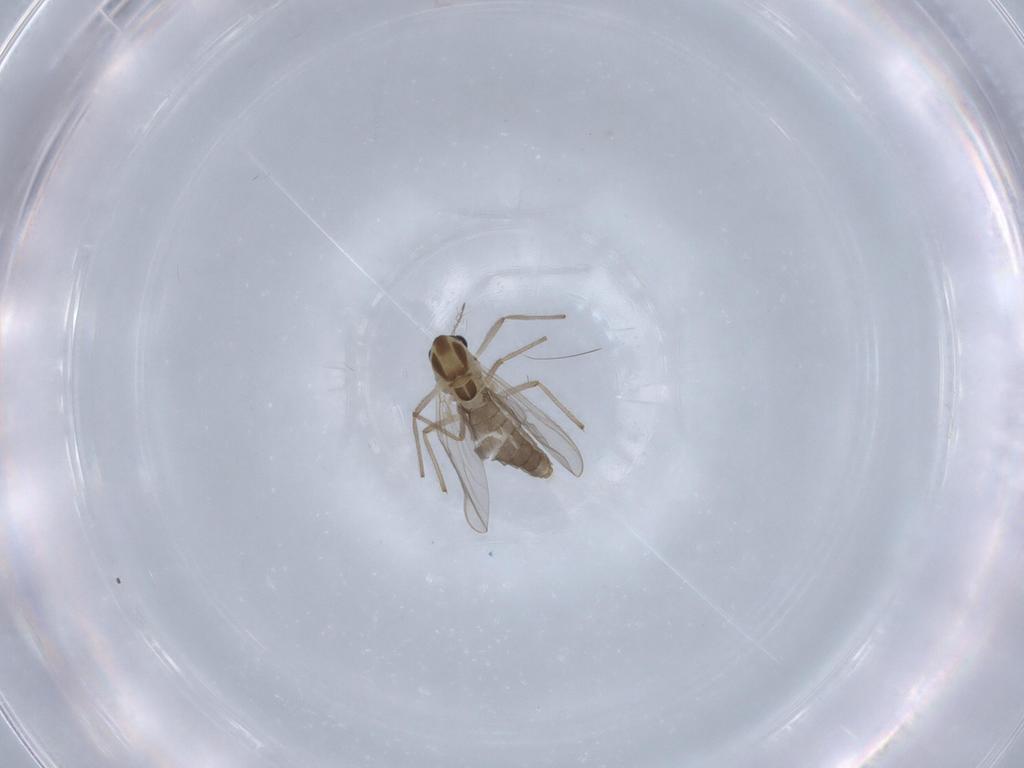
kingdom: Animalia
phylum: Arthropoda
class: Insecta
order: Diptera
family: Chironomidae
